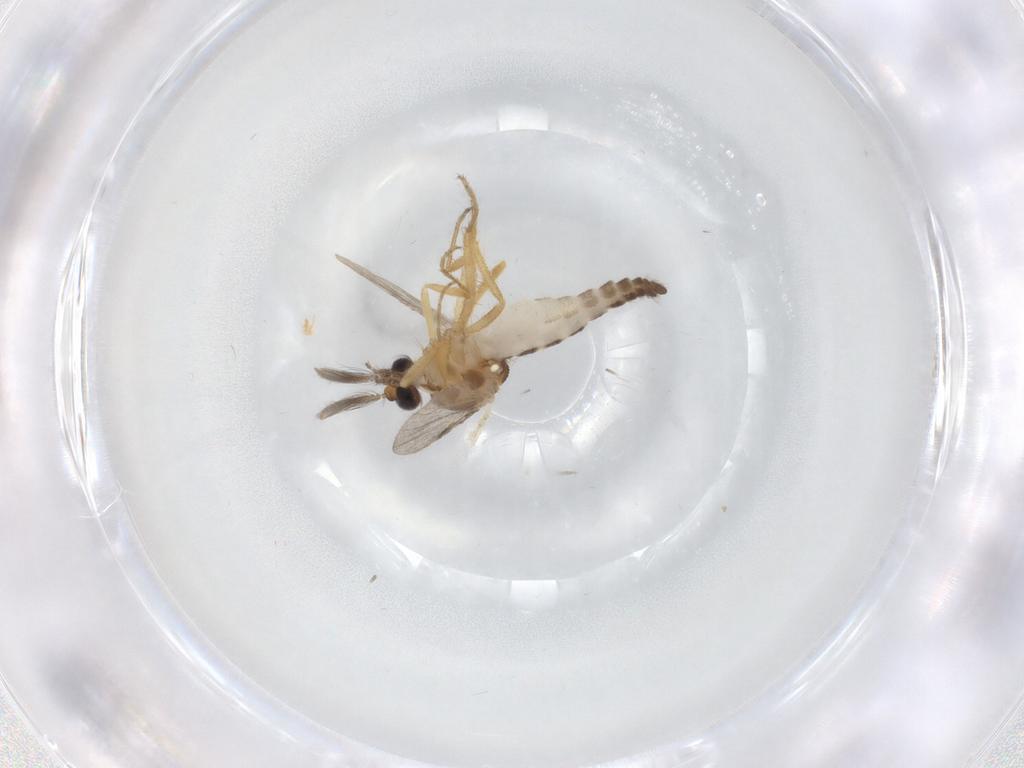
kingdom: Animalia
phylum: Arthropoda
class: Insecta
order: Diptera
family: Ceratopogonidae
